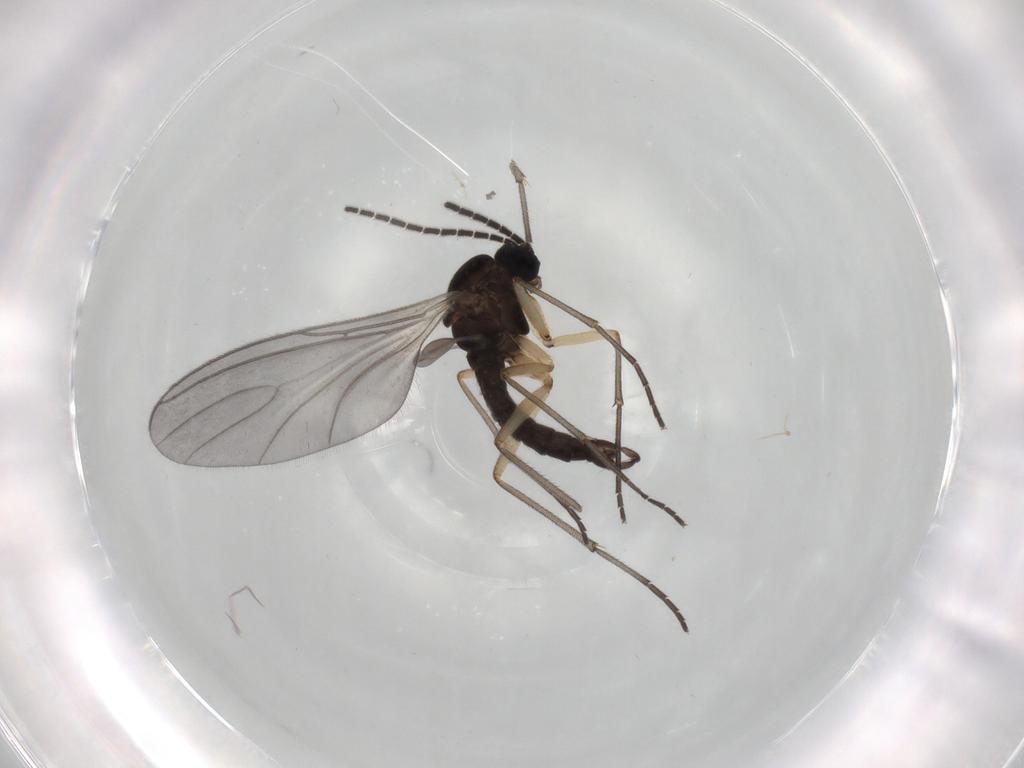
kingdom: Animalia
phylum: Arthropoda
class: Insecta
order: Diptera
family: Sciaridae
